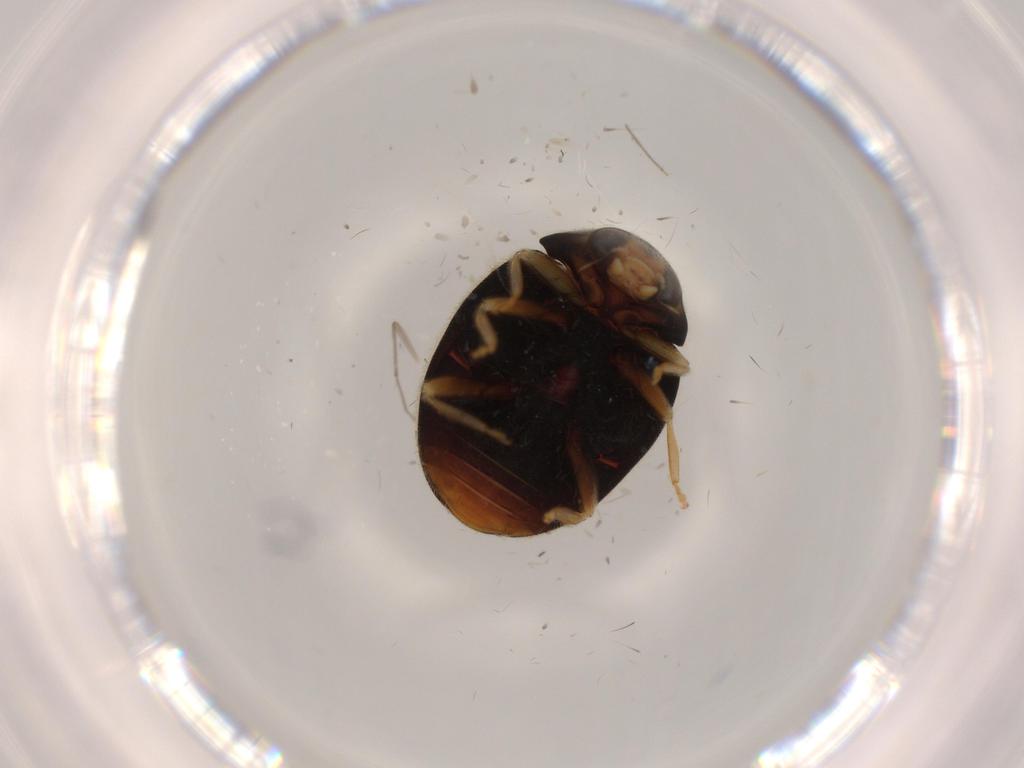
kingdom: Animalia
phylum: Arthropoda
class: Insecta
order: Coleoptera
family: Coccinellidae
